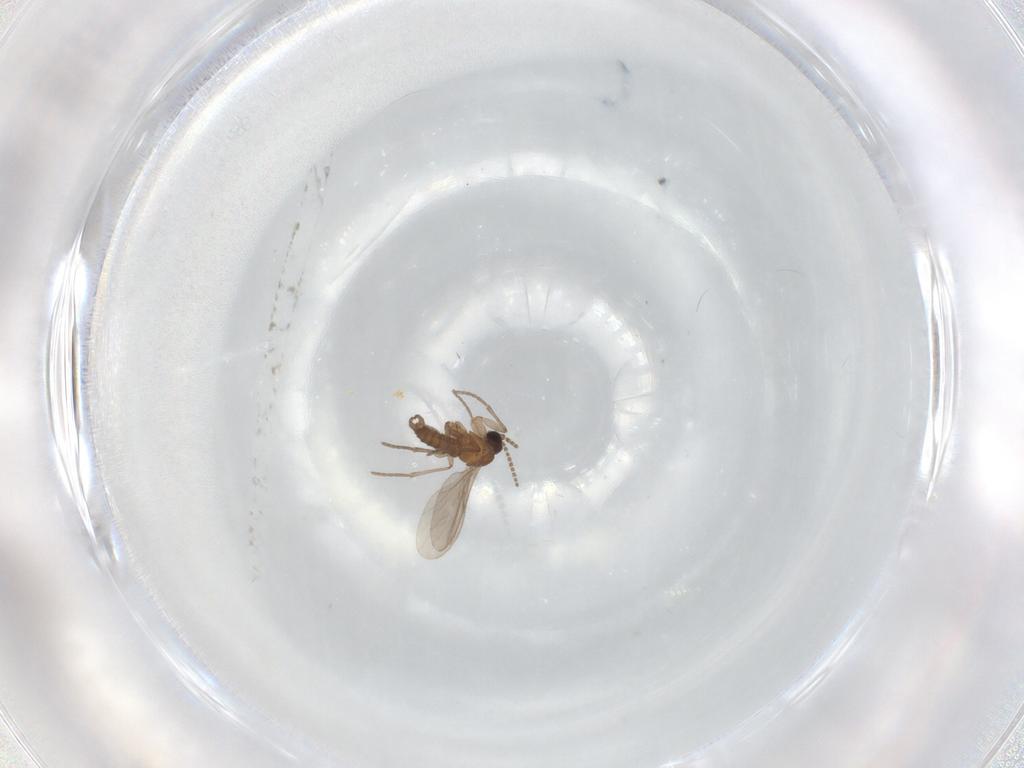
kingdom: Animalia
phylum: Arthropoda
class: Insecta
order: Diptera
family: Sciaridae
